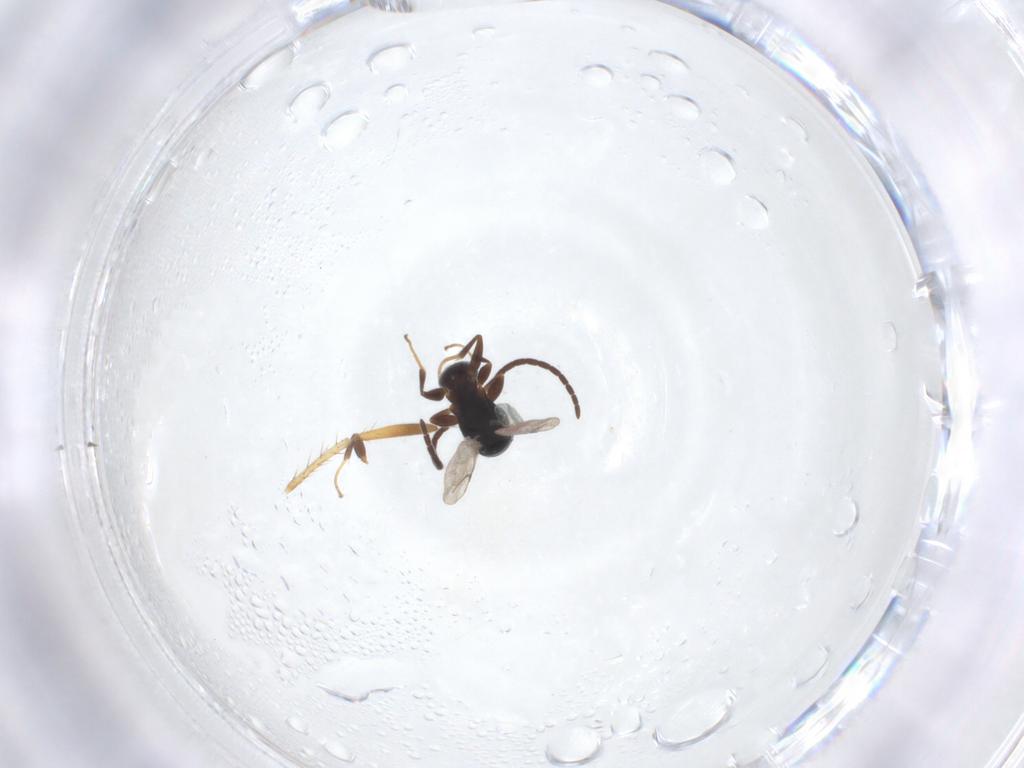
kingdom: Animalia
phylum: Arthropoda
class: Insecta
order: Hymenoptera
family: Bethylidae
